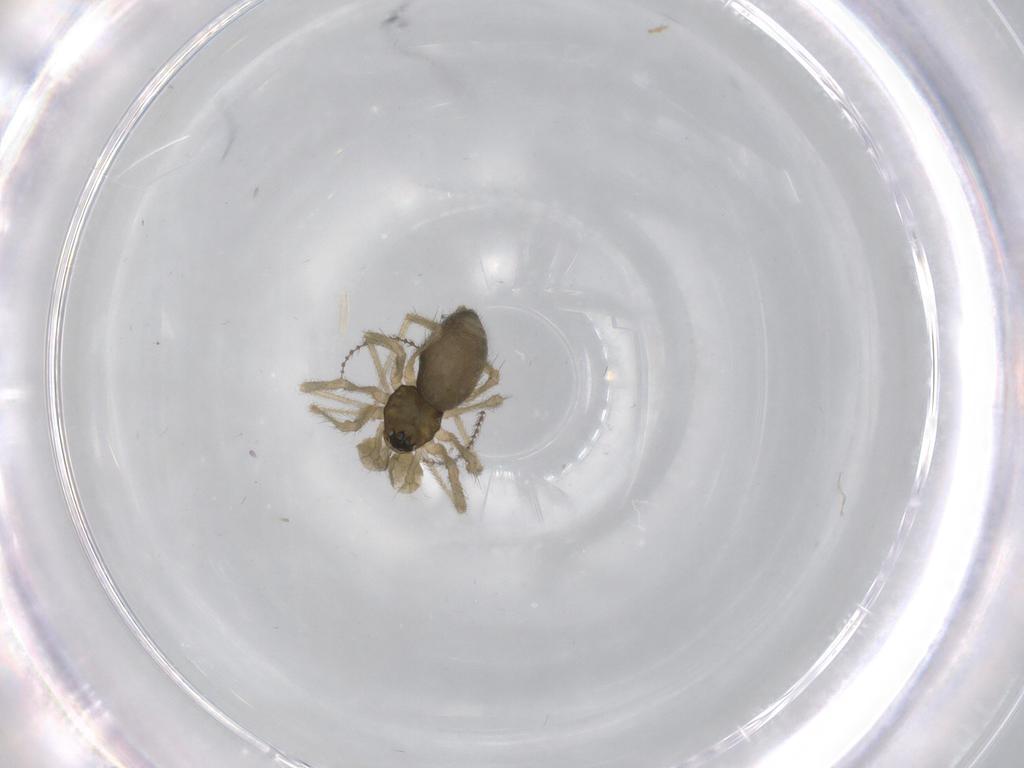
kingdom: Animalia
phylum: Arthropoda
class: Arachnida
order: Araneae
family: Linyphiidae
